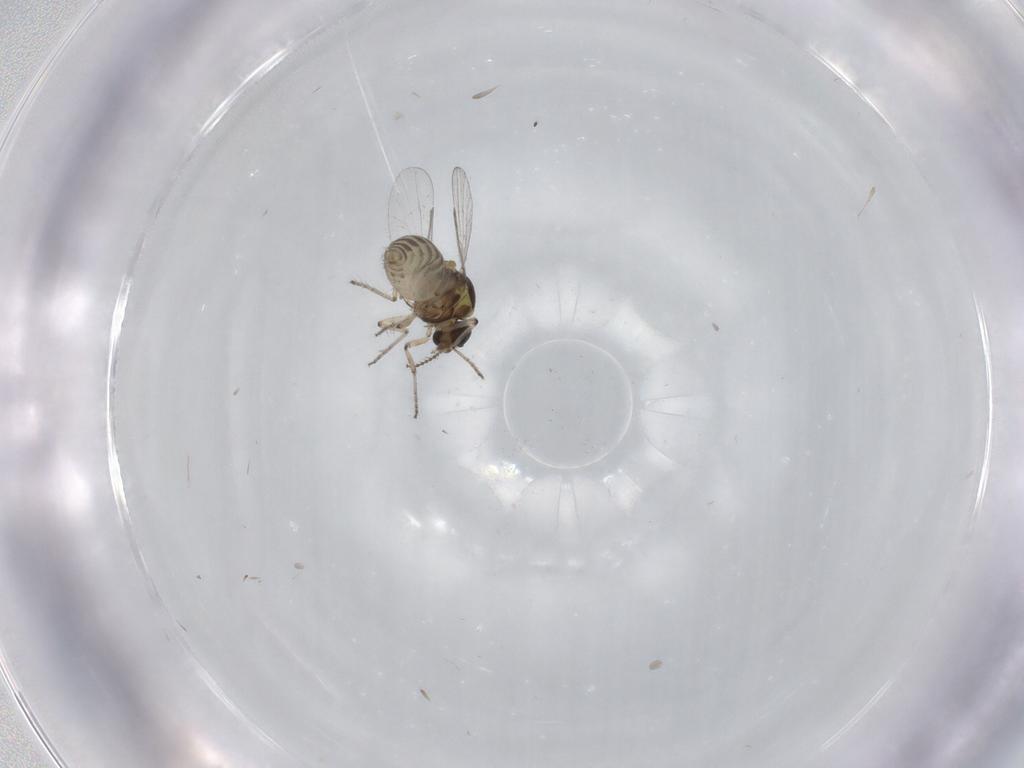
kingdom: Animalia
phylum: Arthropoda
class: Insecta
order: Diptera
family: Ceratopogonidae
